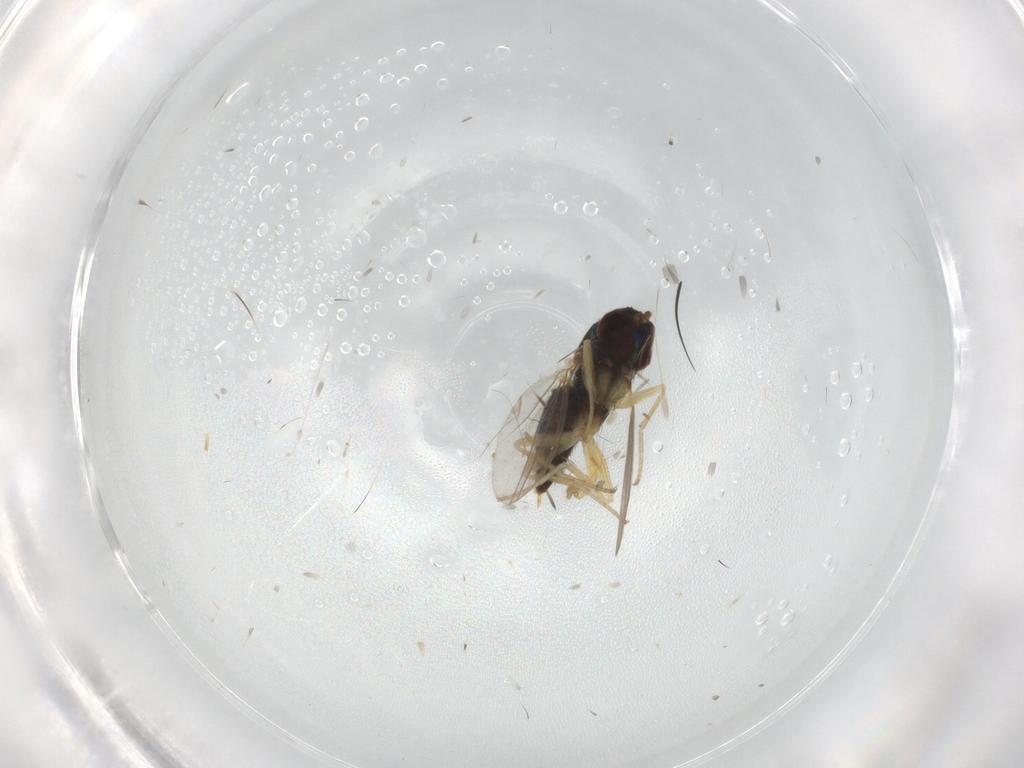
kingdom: Animalia
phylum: Arthropoda
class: Insecta
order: Diptera
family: Dolichopodidae
